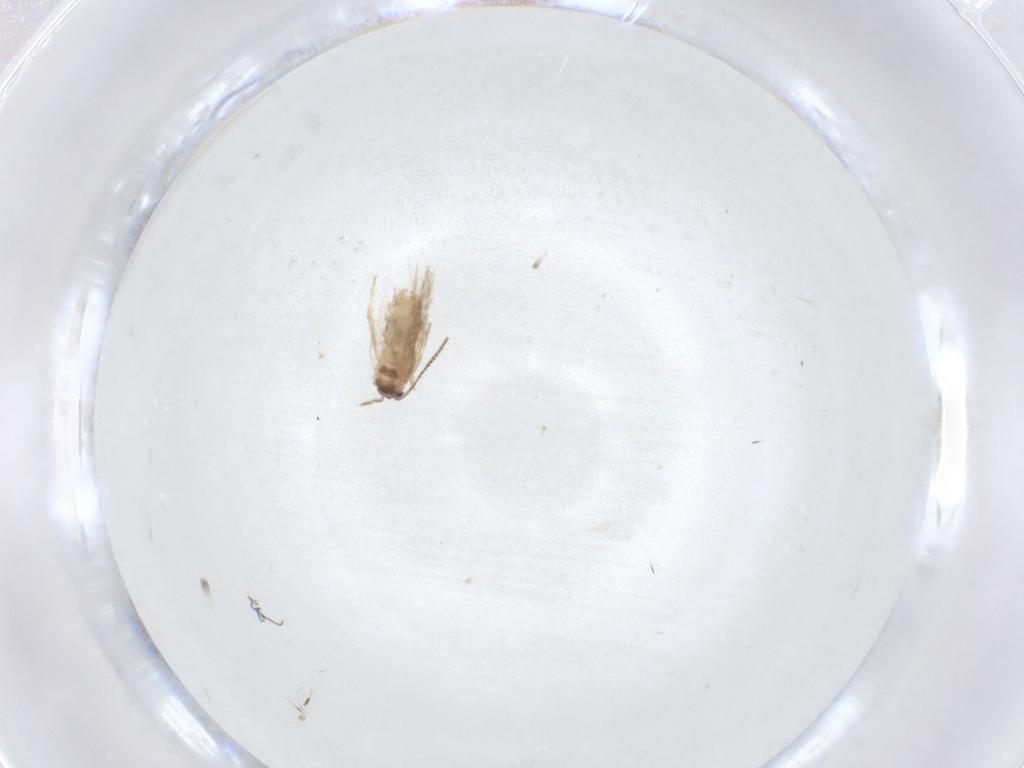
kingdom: Animalia
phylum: Arthropoda
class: Insecta
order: Lepidoptera
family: Nepticulidae
